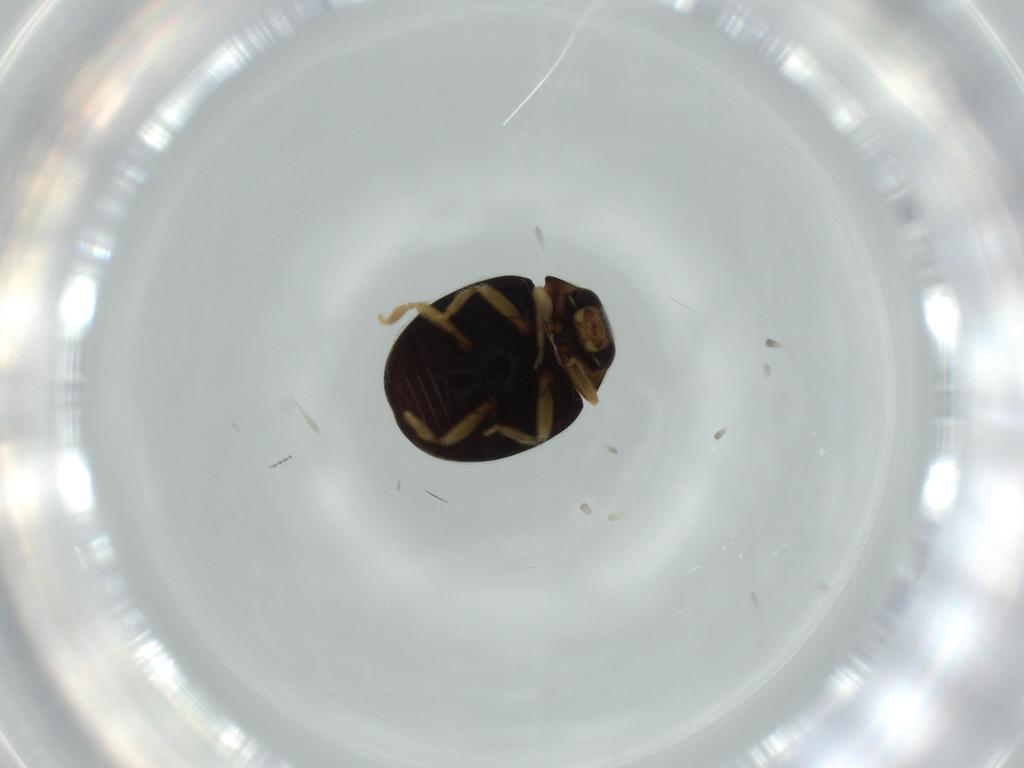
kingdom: Animalia
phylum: Arthropoda
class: Insecta
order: Coleoptera
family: Coccinellidae
